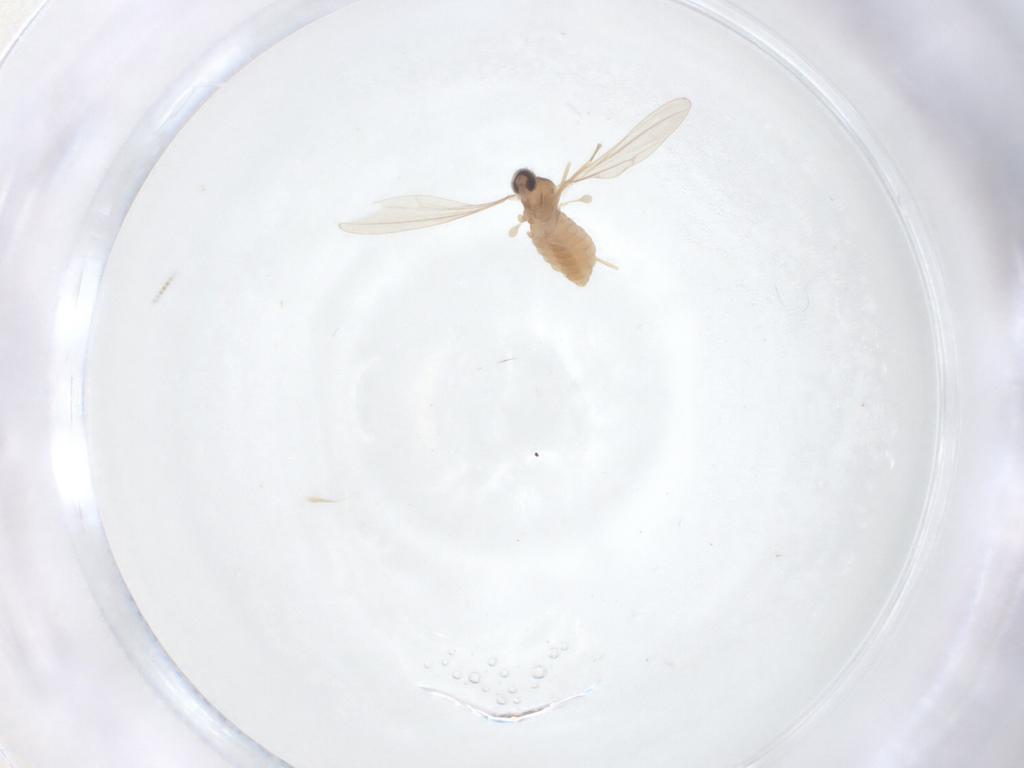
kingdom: Animalia
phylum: Arthropoda
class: Insecta
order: Diptera
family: Cecidomyiidae
